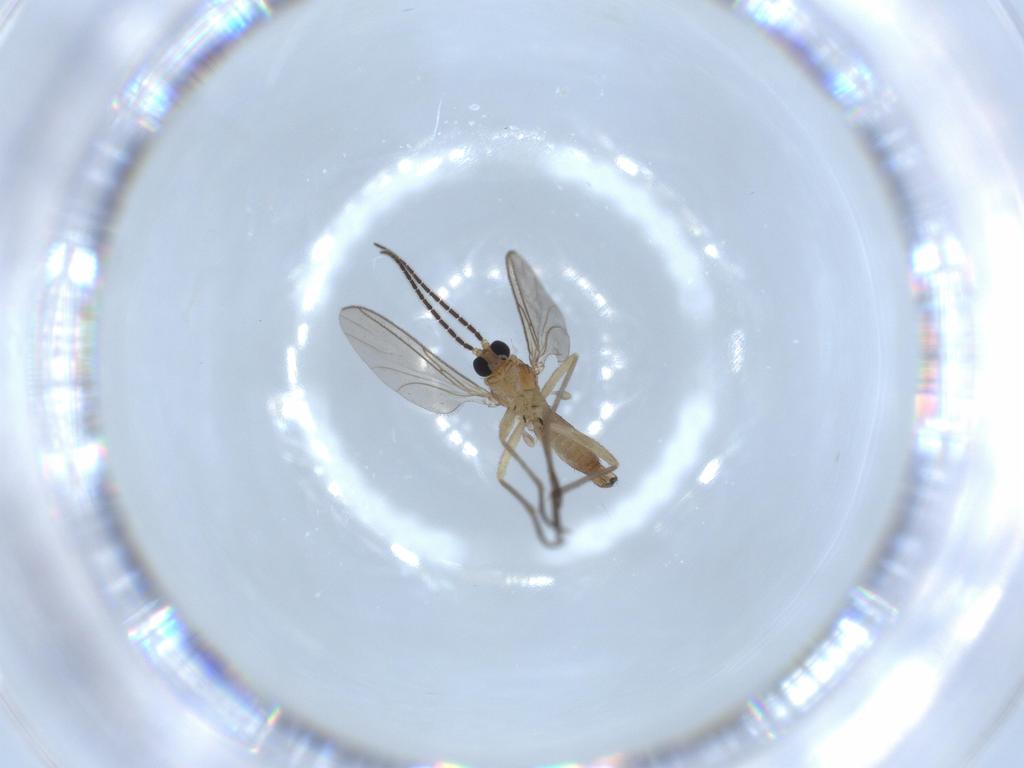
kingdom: Animalia
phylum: Arthropoda
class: Insecta
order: Diptera
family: Sciaridae
